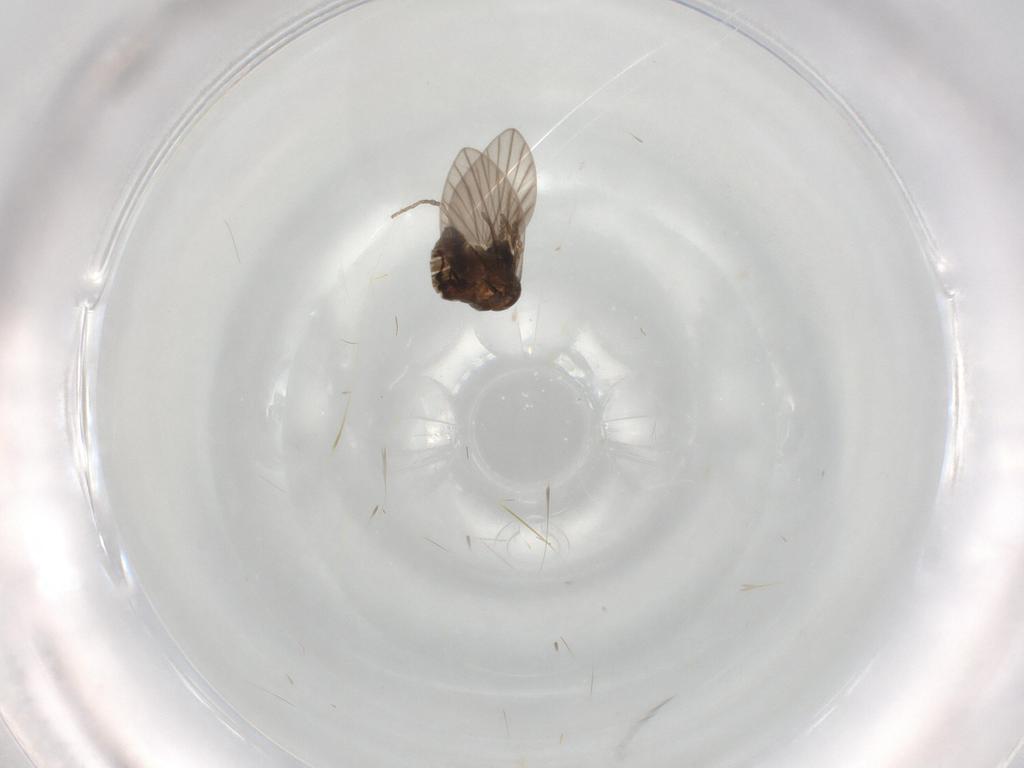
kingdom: Animalia
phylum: Arthropoda
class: Insecta
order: Diptera
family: Psychodidae
